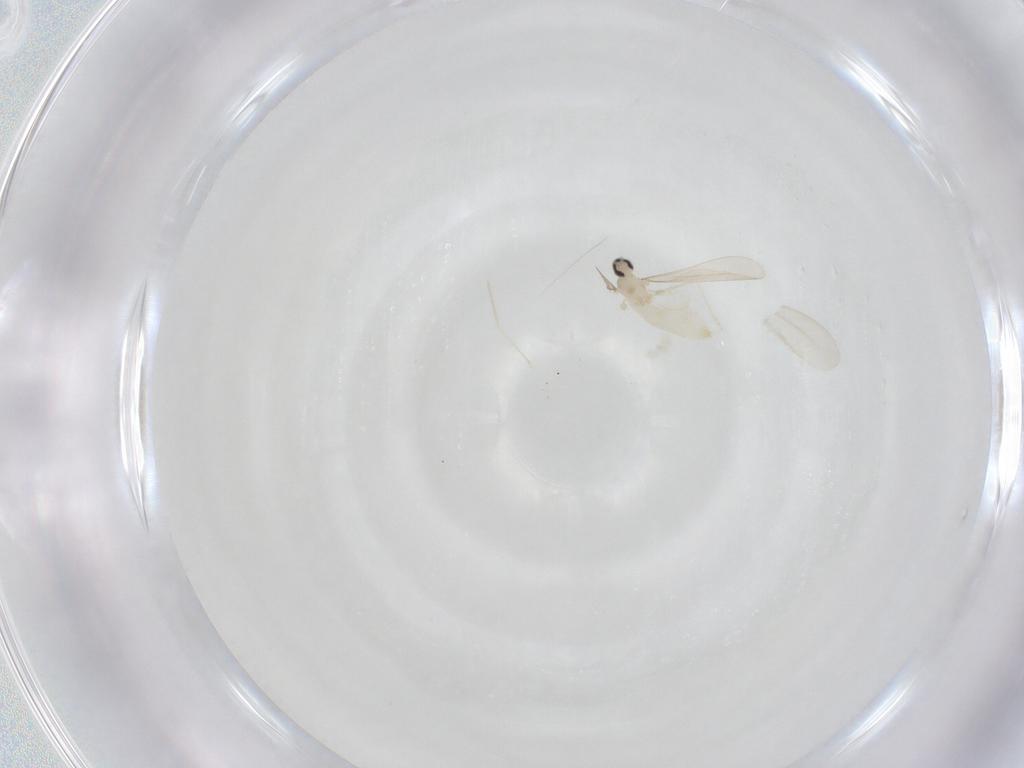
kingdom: Animalia
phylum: Arthropoda
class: Insecta
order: Diptera
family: Cecidomyiidae
